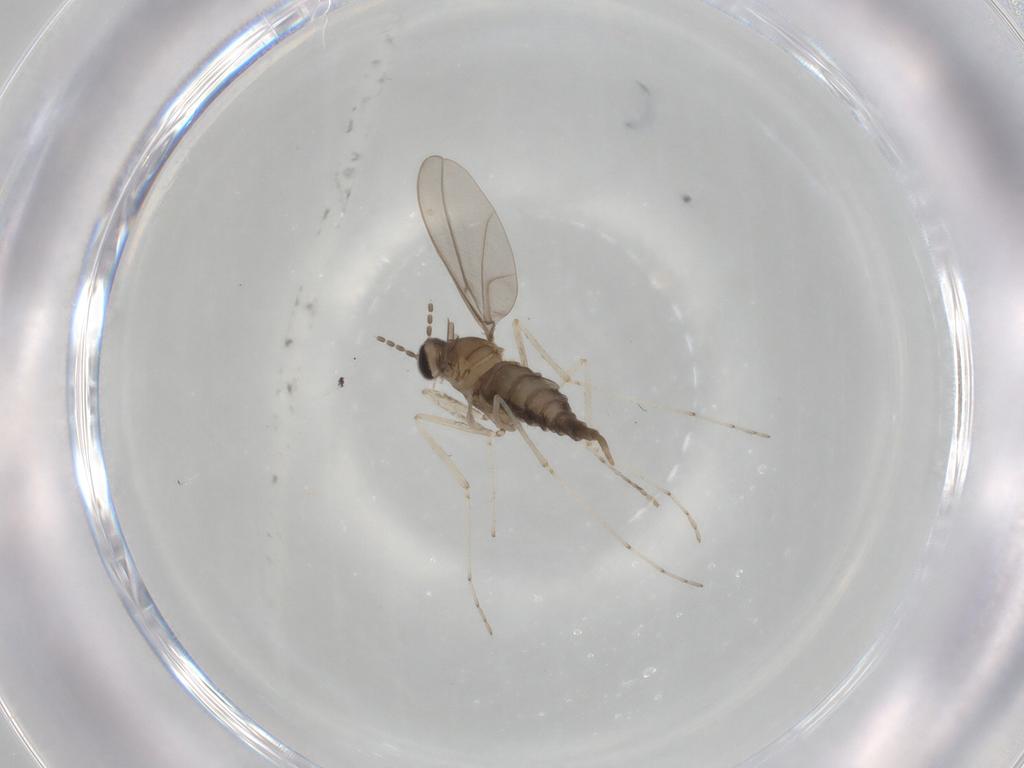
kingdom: Animalia
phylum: Arthropoda
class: Insecta
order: Diptera
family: Cecidomyiidae
